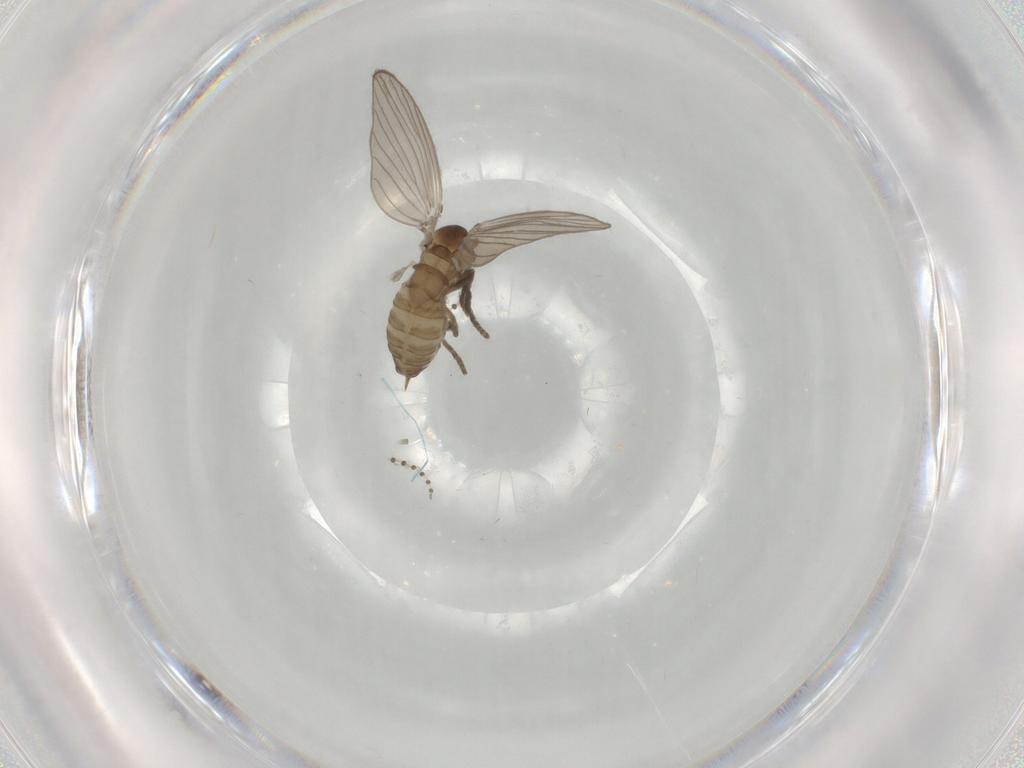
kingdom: Animalia
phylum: Arthropoda
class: Insecta
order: Diptera
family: Psychodidae
